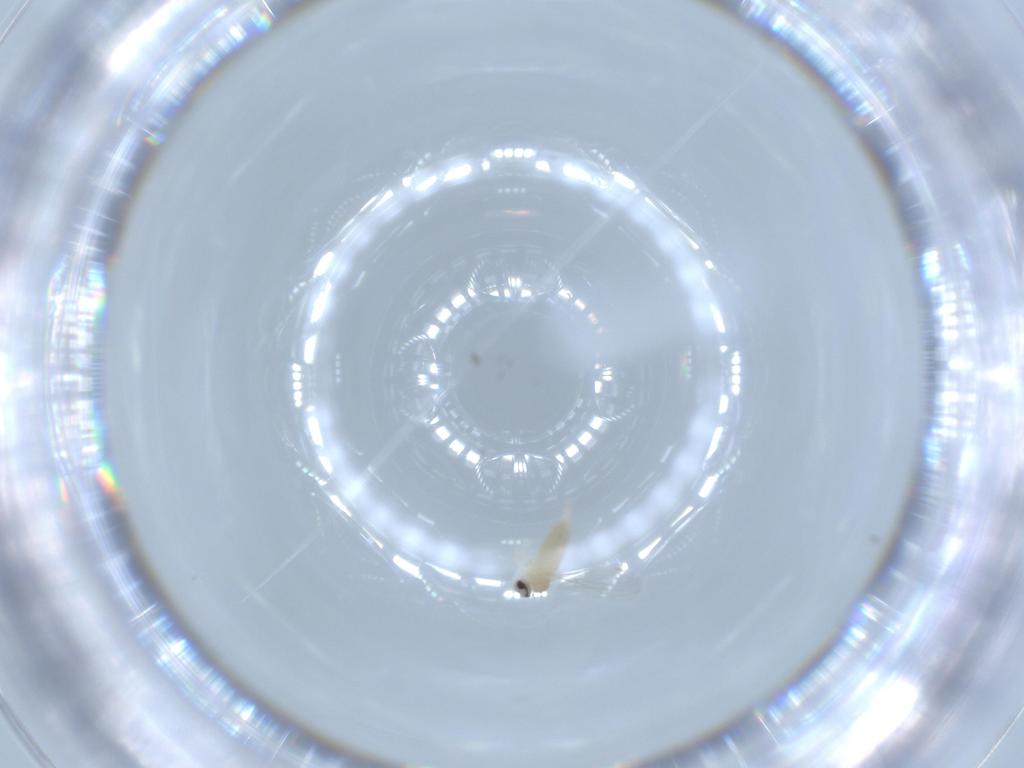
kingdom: Animalia
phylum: Arthropoda
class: Insecta
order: Diptera
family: Cecidomyiidae
